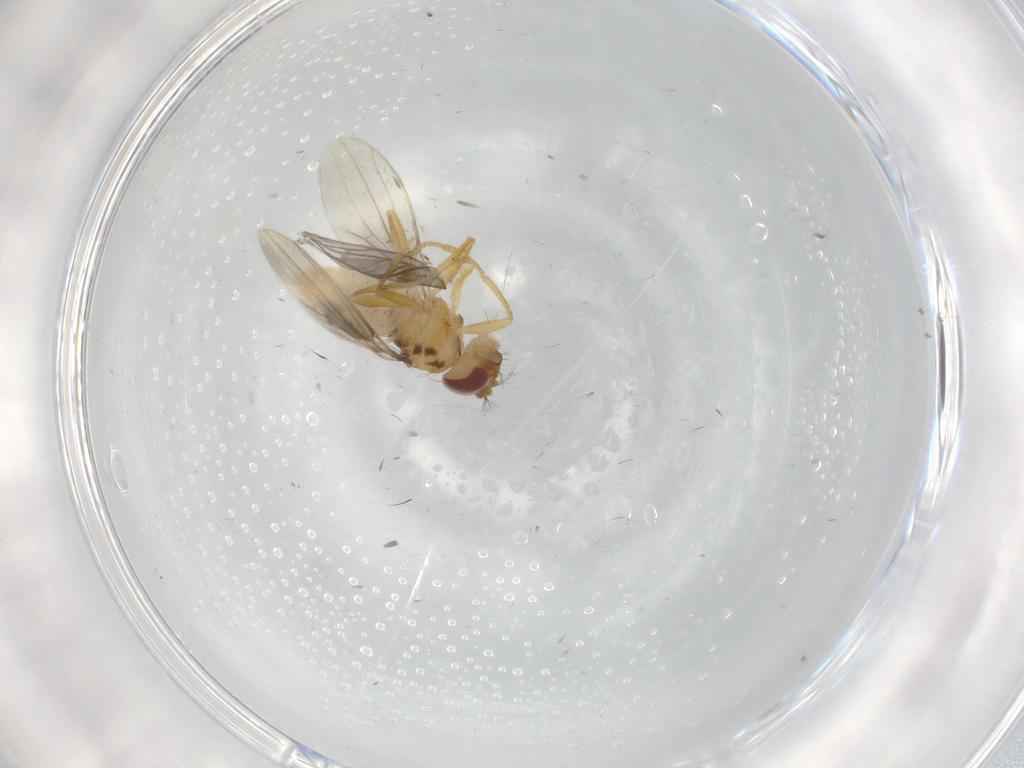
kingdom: Animalia
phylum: Arthropoda
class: Insecta
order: Diptera
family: Periscelididae
